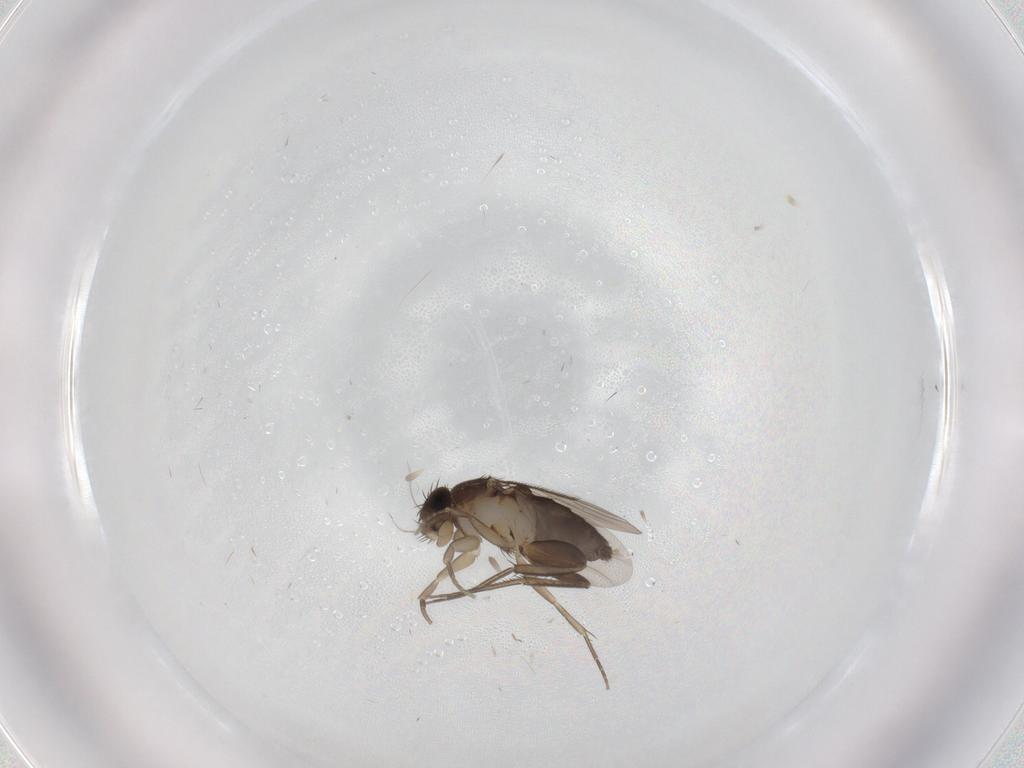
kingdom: Animalia
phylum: Arthropoda
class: Insecta
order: Diptera
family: Phoridae
